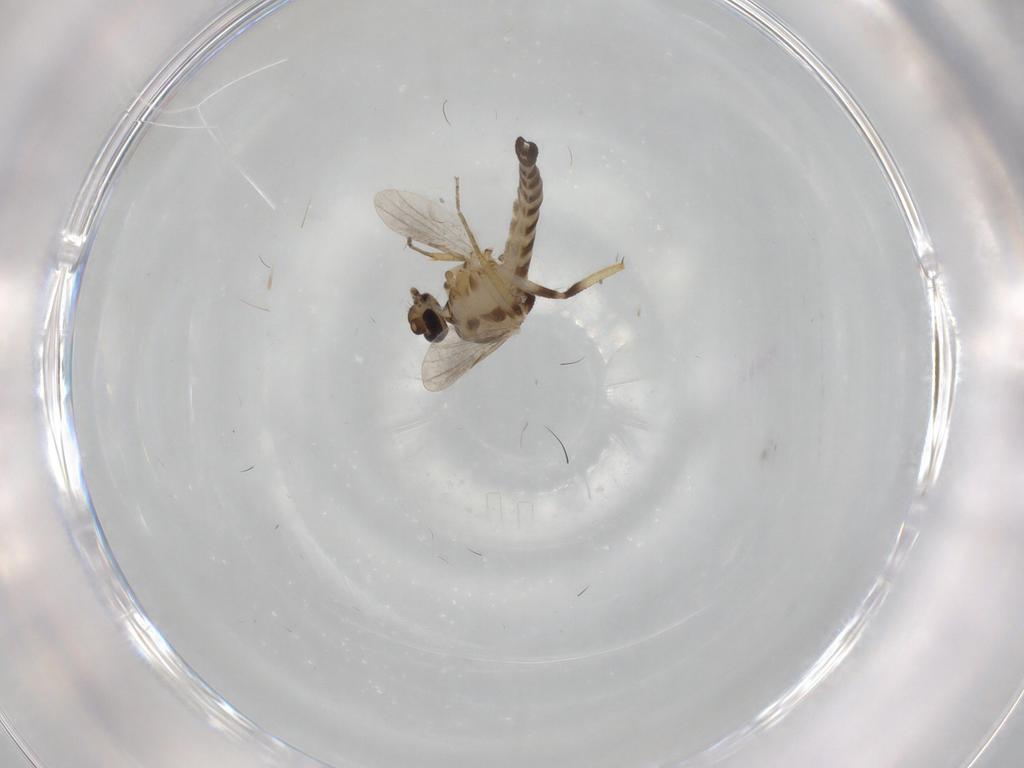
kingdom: Animalia
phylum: Arthropoda
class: Insecta
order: Diptera
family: Ceratopogonidae
